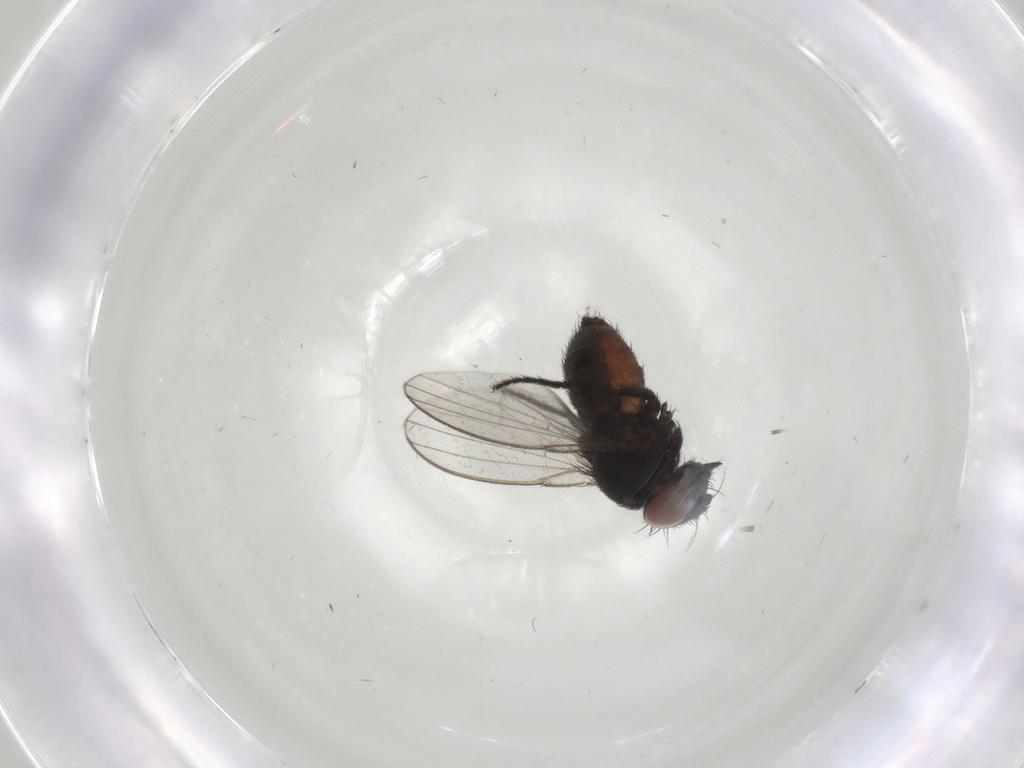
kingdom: Animalia
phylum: Arthropoda
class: Insecta
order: Diptera
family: Milichiidae
